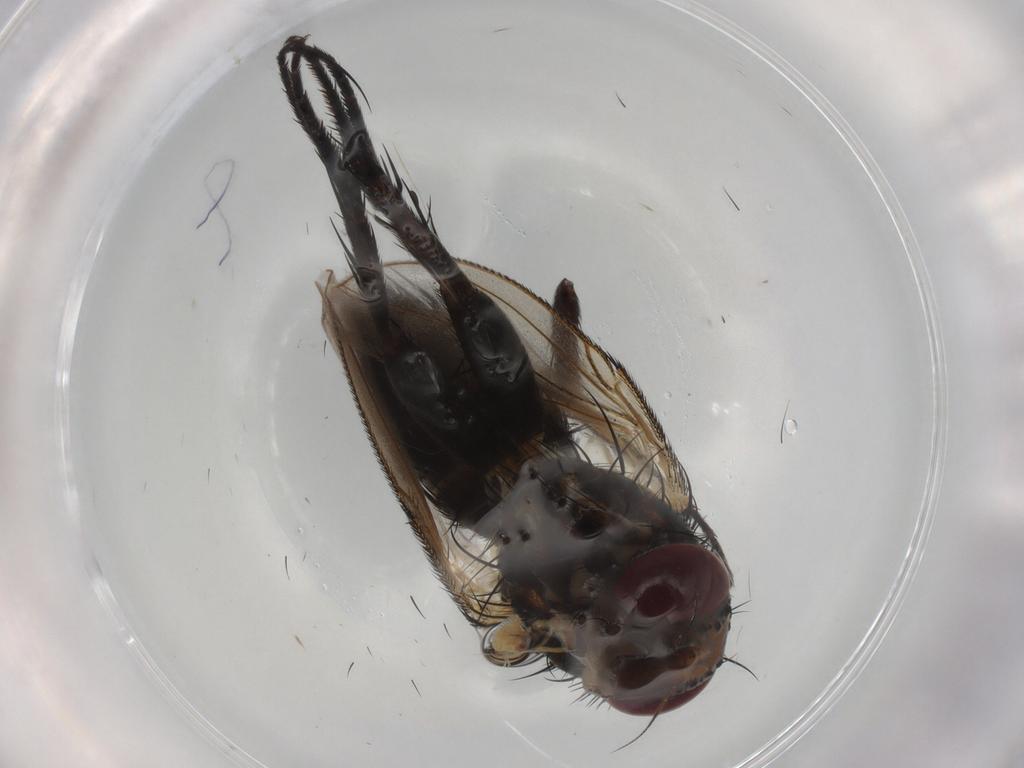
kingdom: Animalia
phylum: Arthropoda
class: Insecta
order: Diptera
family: Tachinidae
